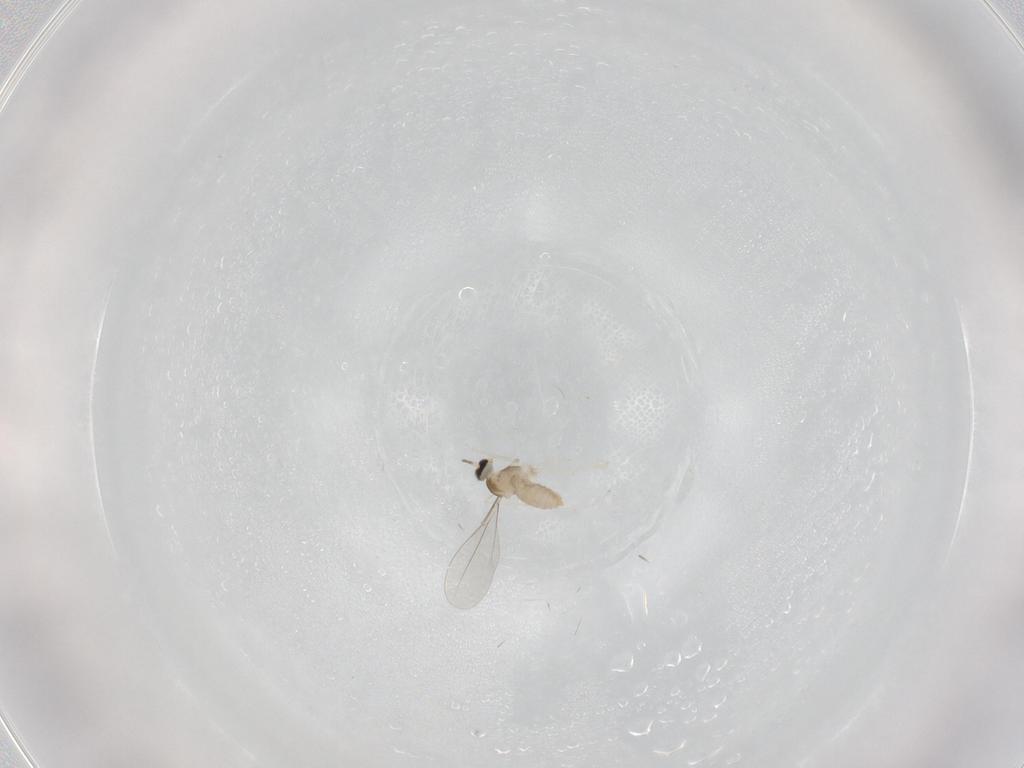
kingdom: Animalia
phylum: Arthropoda
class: Insecta
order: Diptera
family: Cecidomyiidae
